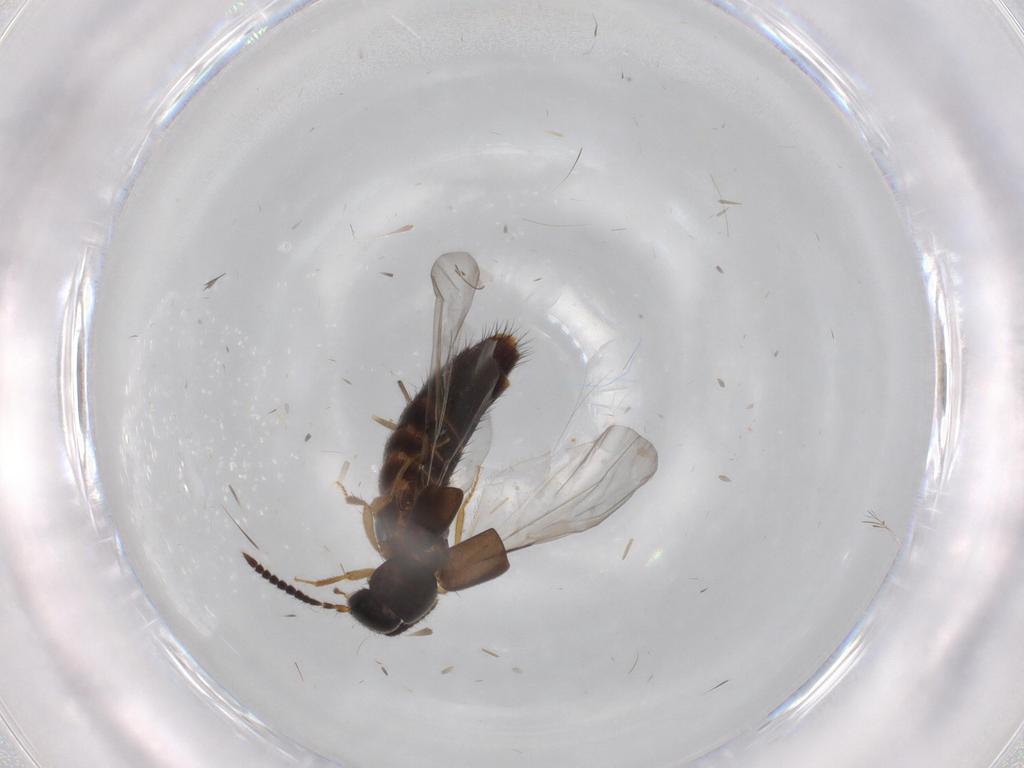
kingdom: Animalia
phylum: Arthropoda
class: Insecta
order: Coleoptera
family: Staphylinidae
